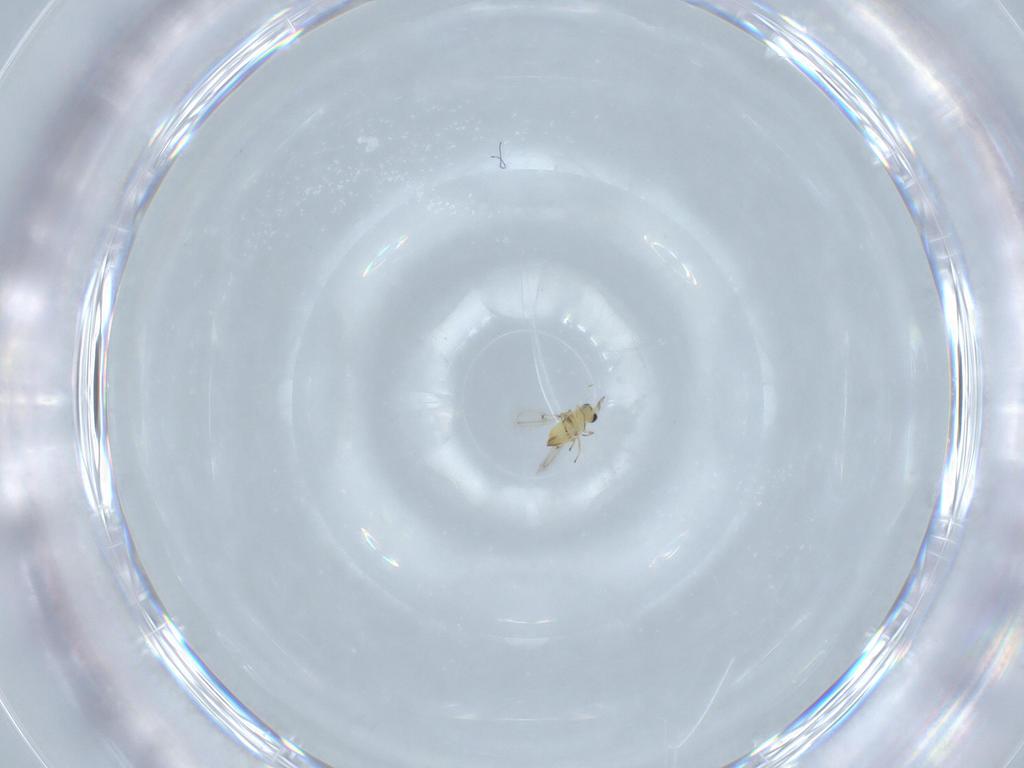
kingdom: Animalia
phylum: Arthropoda
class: Insecta
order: Hymenoptera
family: Trichogrammatidae
